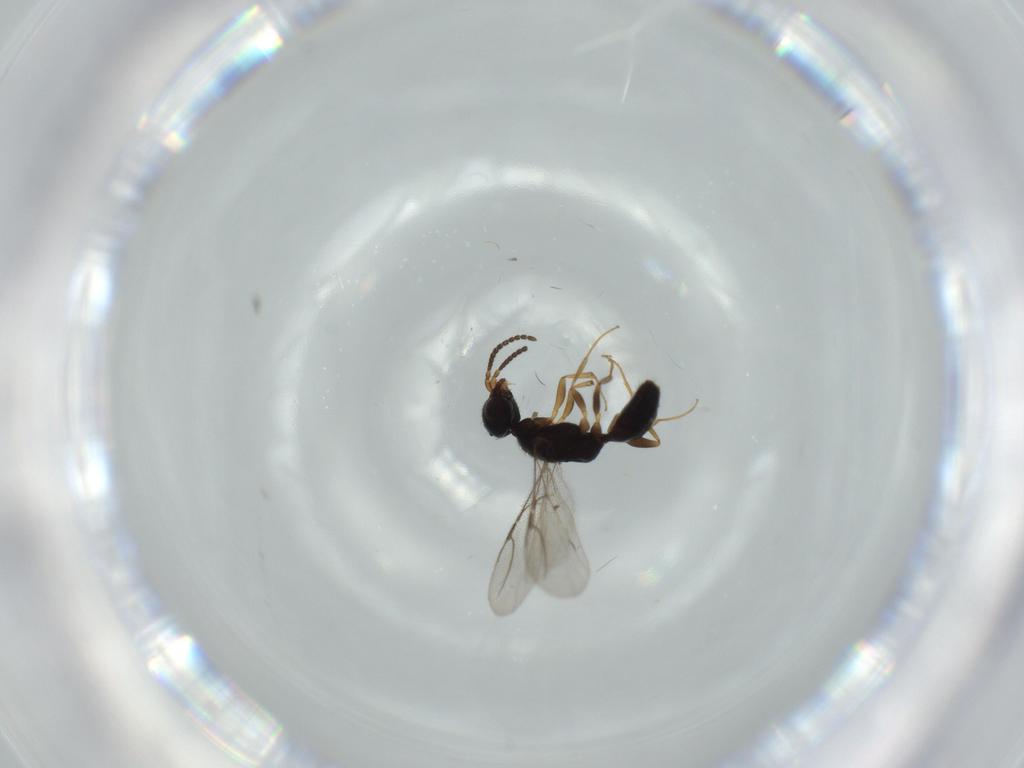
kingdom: Animalia
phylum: Arthropoda
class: Insecta
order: Hymenoptera
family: Bethylidae
